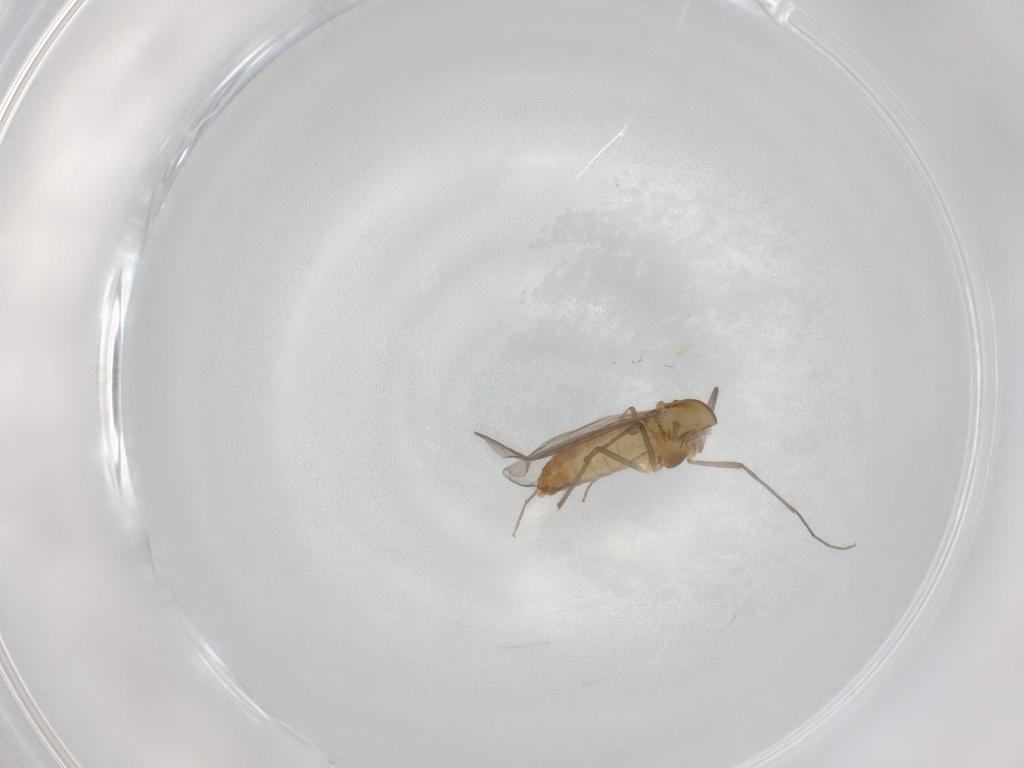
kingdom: Animalia
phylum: Arthropoda
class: Insecta
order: Diptera
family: Chironomidae
